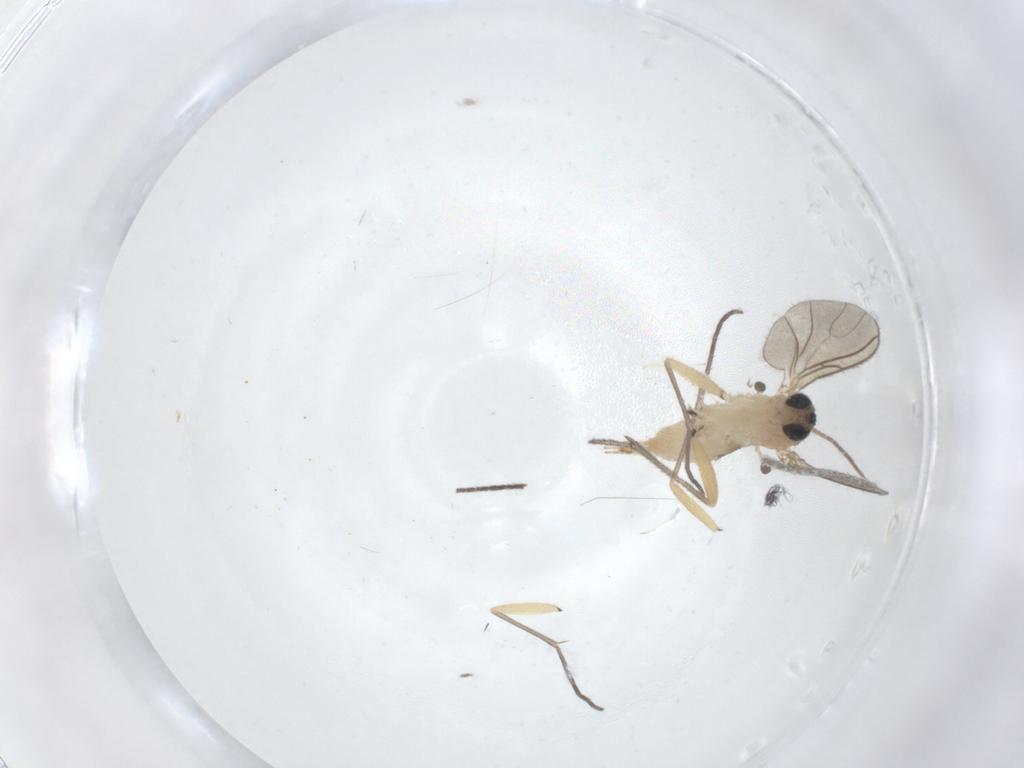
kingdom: Animalia
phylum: Arthropoda
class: Insecta
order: Diptera
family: Sciaridae
